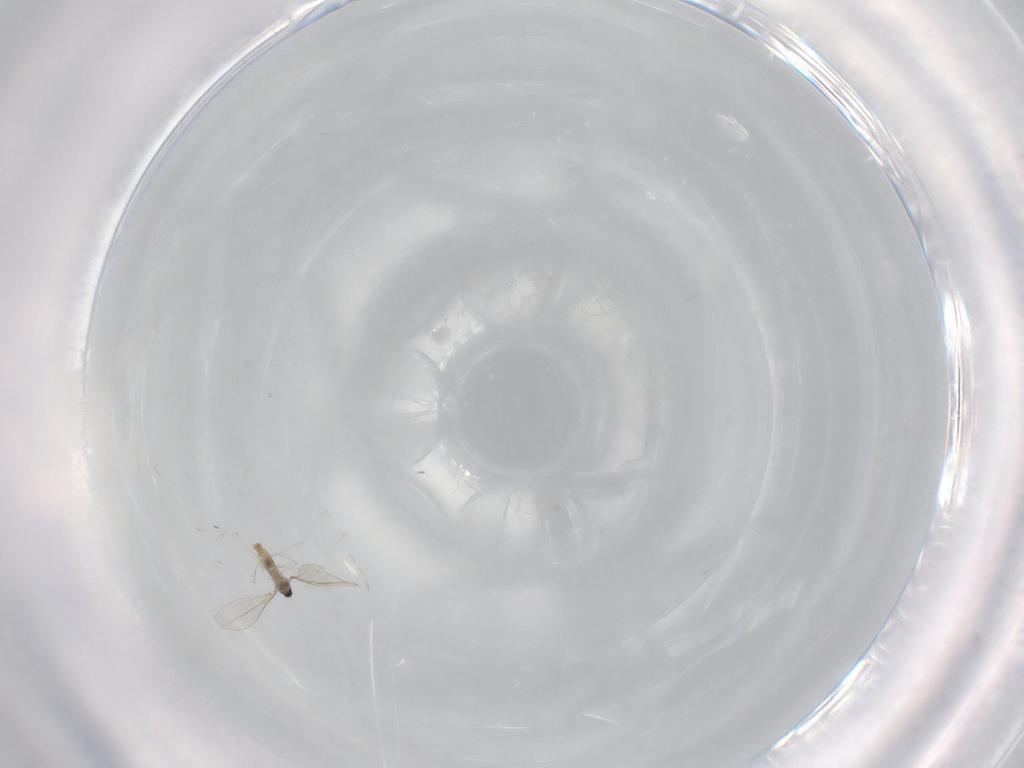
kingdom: Animalia
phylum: Arthropoda
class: Insecta
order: Diptera
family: Cecidomyiidae
